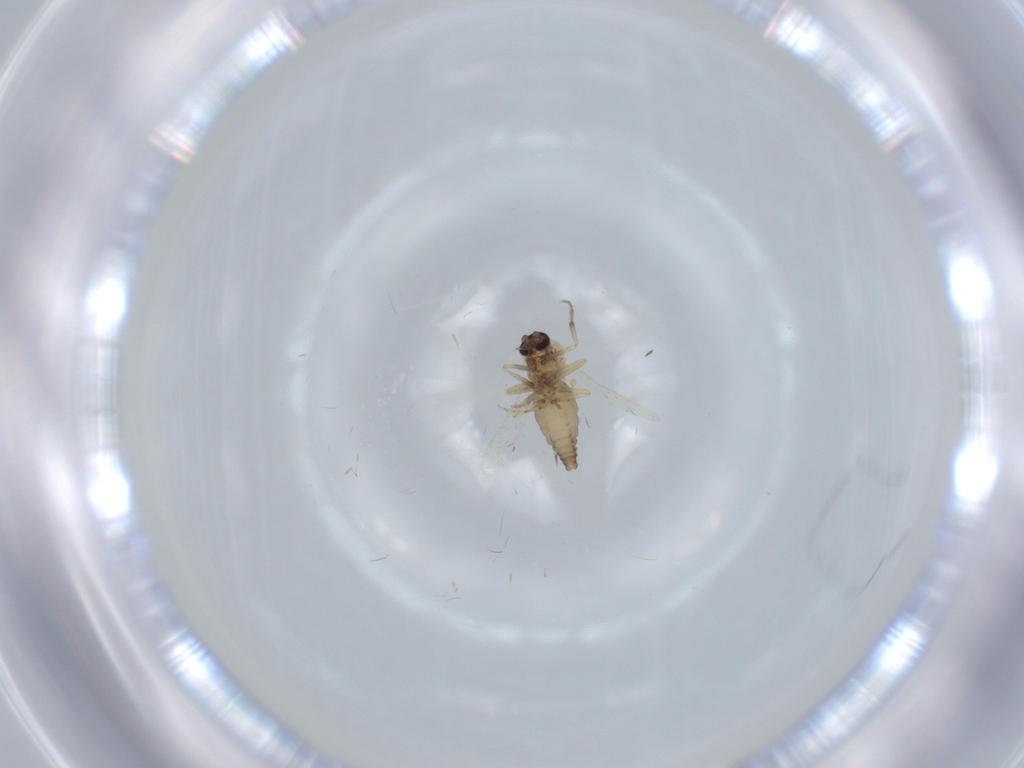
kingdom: Animalia
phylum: Arthropoda
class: Insecta
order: Diptera
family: Ceratopogonidae
